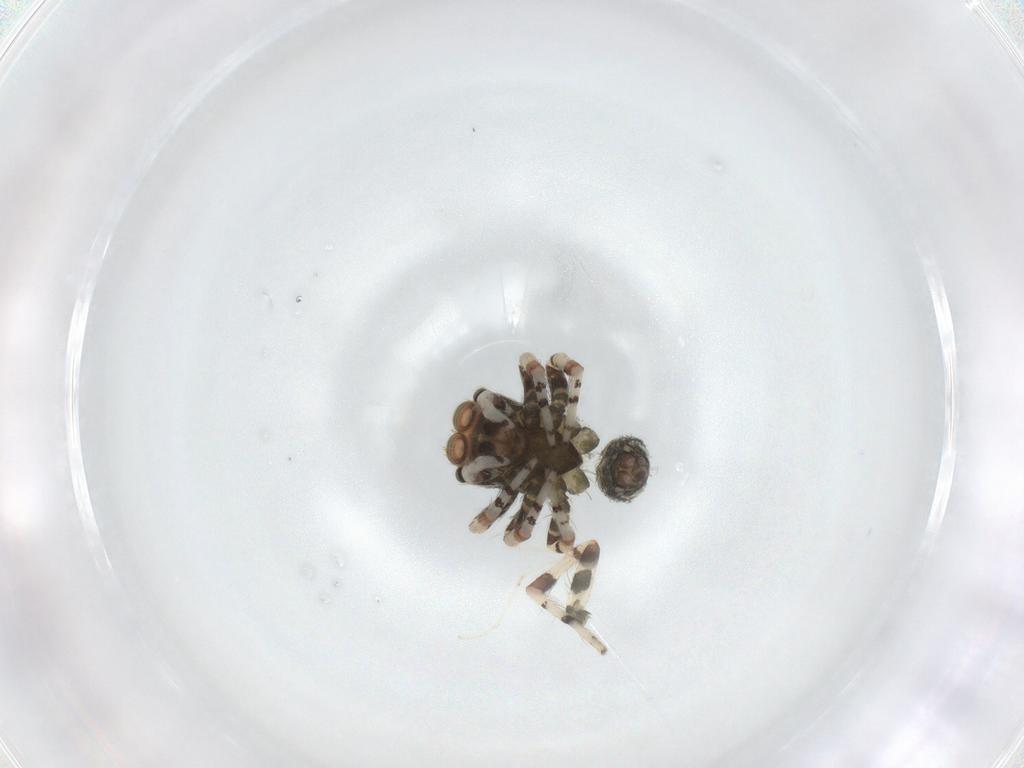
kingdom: Animalia
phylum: Arthropoda
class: Arachnida
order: Araneae
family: Salticidae
